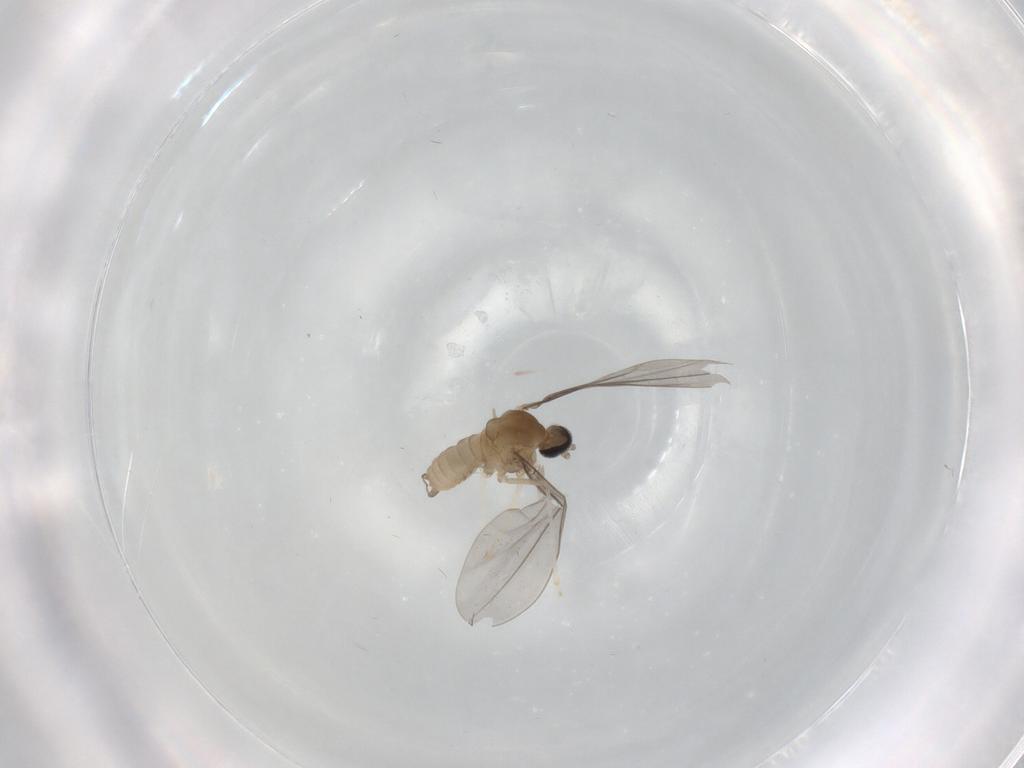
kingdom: Animalia
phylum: Arthropoda
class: Insecta
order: Diptera
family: Cecidomyiidae
